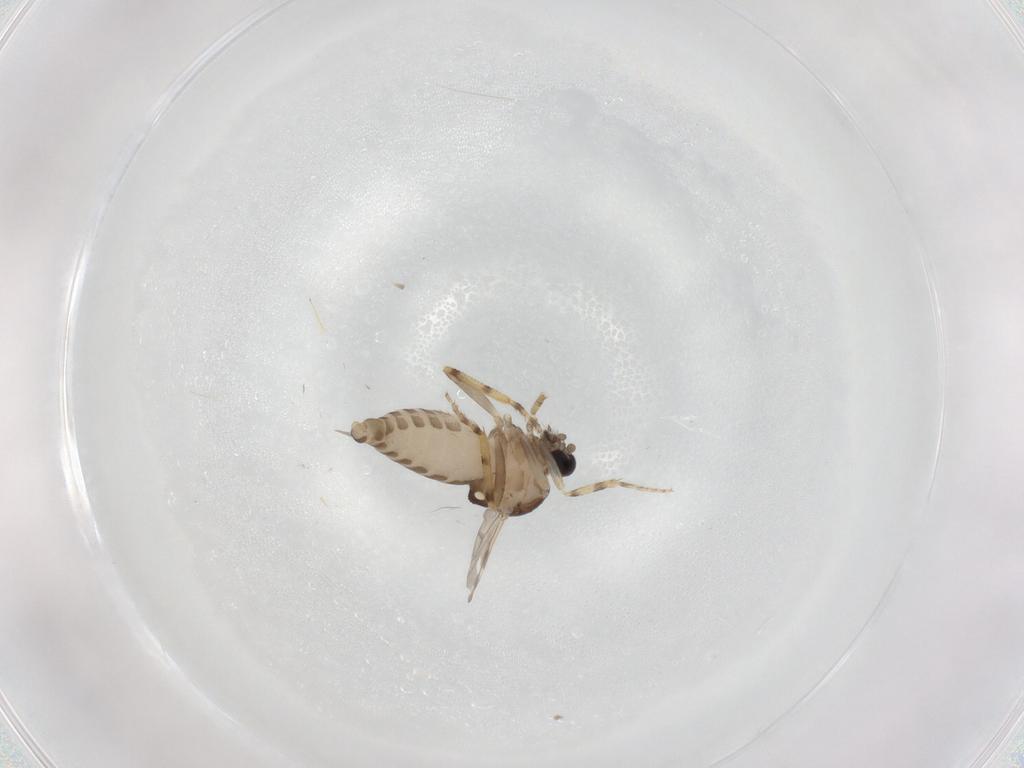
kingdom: Animalia
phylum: Arthropoda
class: Insecta
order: Diptera
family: Ceratopogonidae
